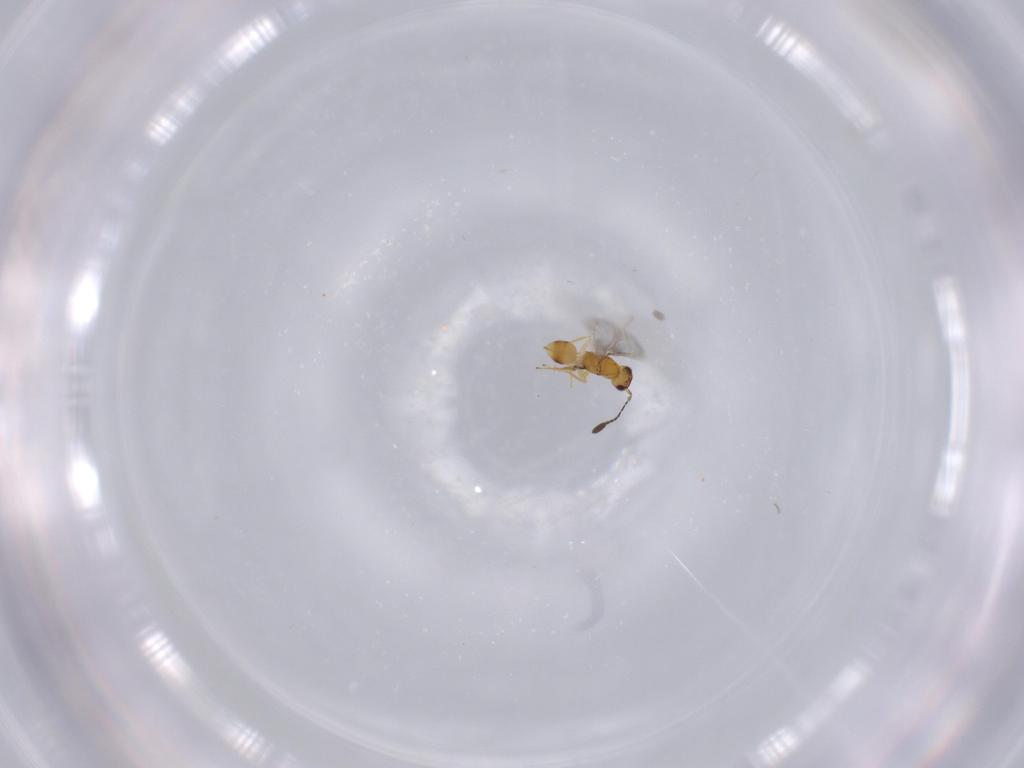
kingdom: Animalia
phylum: Arthropoda
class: Insecta
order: Hymenoptera
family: Mymaridae
